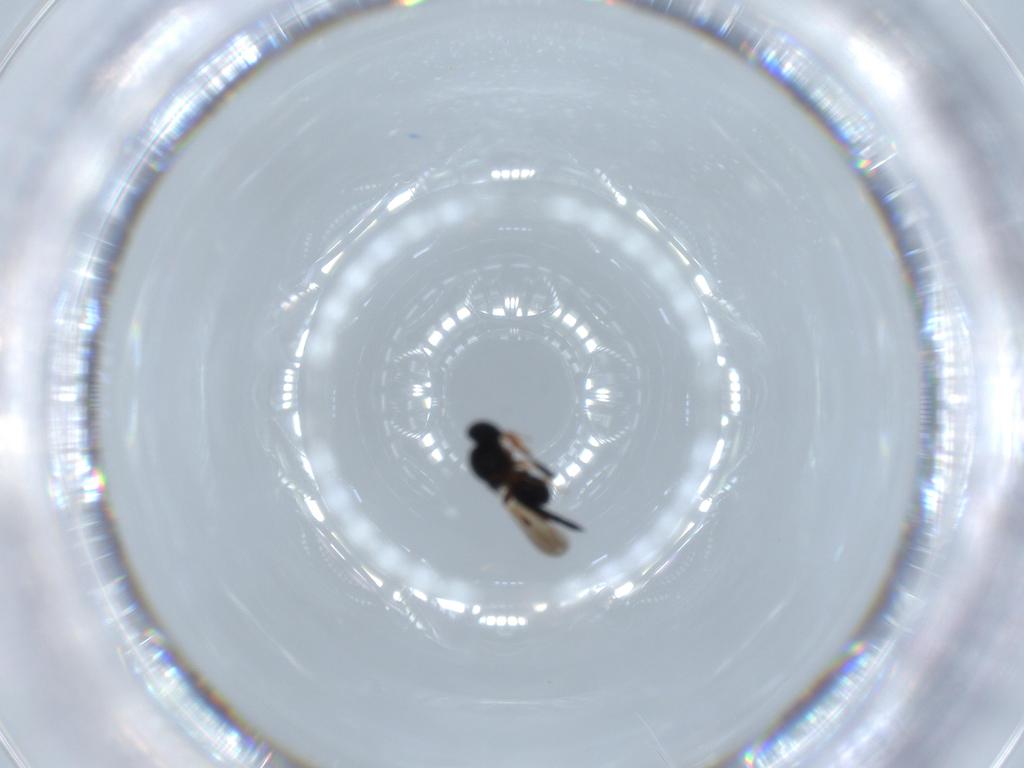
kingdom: Animalia
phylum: Arthropoda
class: Insecta
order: Hymenoptera
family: Platygastridae
